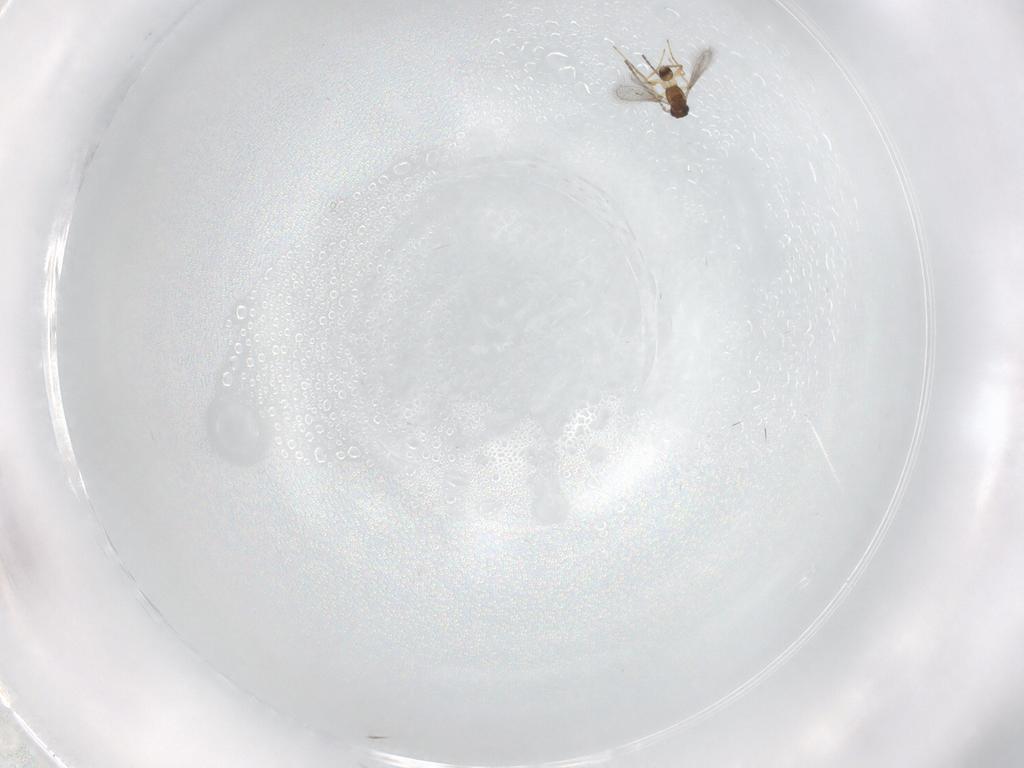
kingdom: Animalia
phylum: Arthropoda
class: Insecta
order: Hymenoptera
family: Mymaridae
